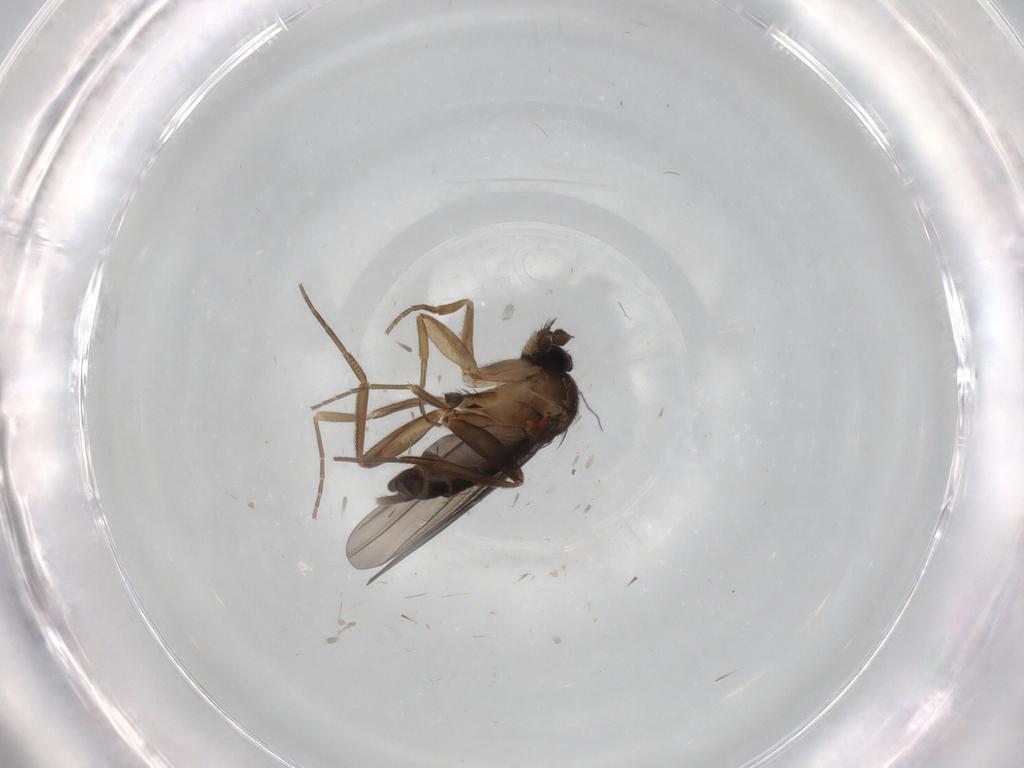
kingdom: Animalia
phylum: Arthropoda
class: Insecta
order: Diptera
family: Phoridae
